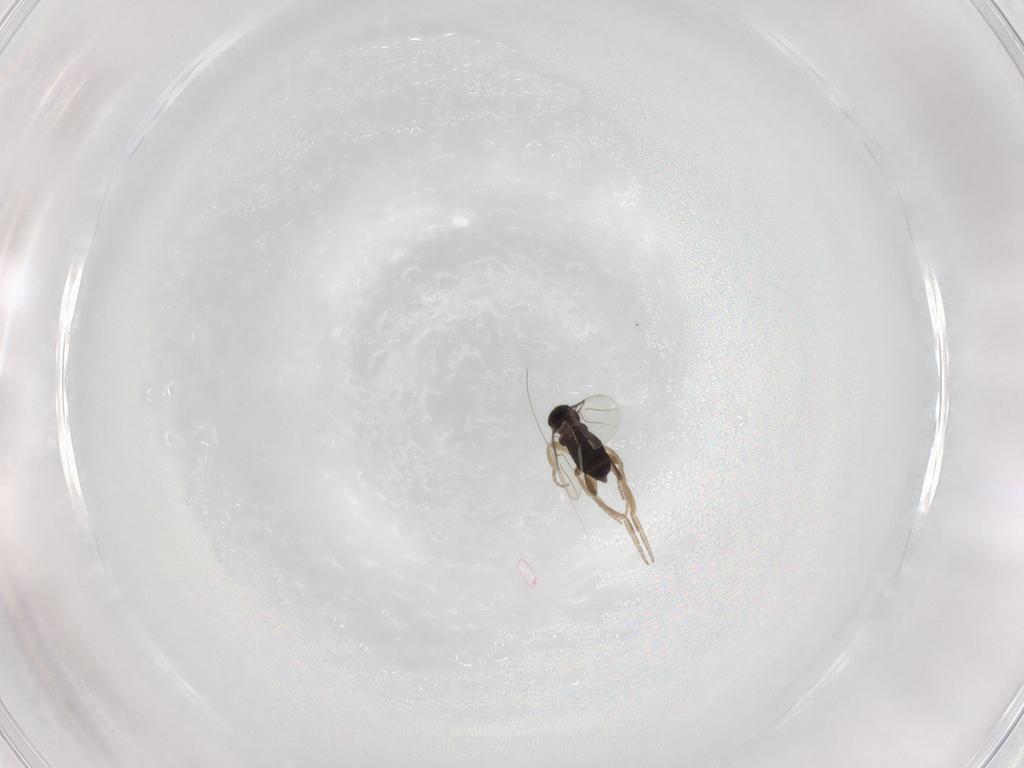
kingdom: Animalia
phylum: Arthropoda
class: Insecta
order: Diptera
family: Phoridae
